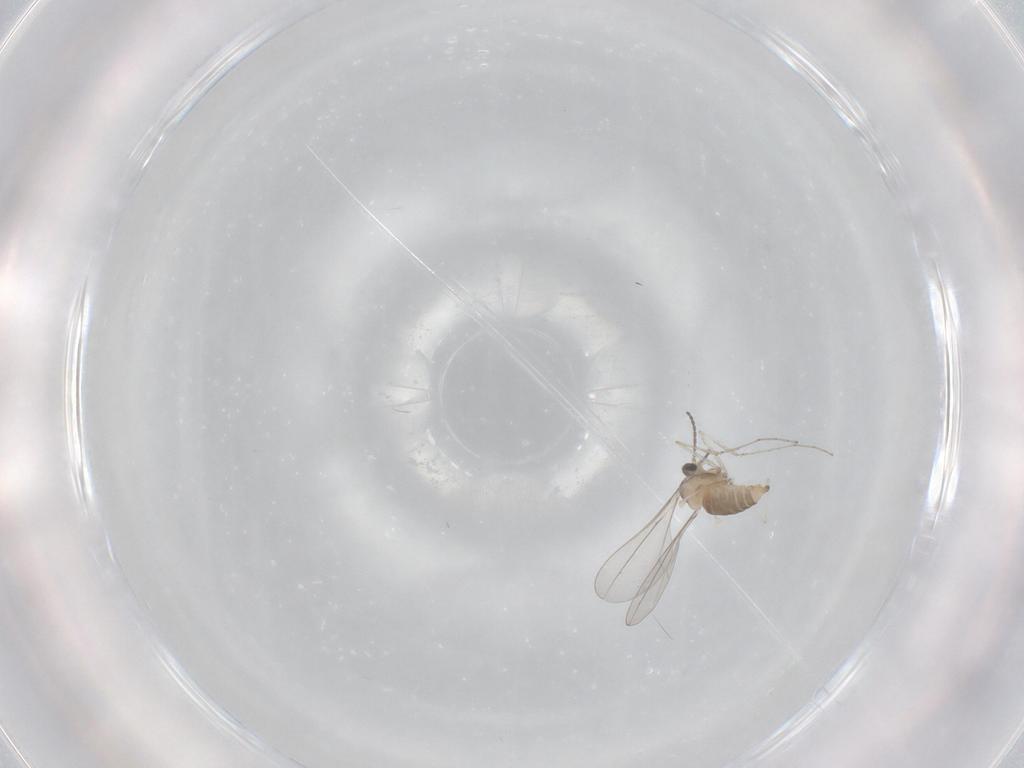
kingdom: Animalia
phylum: Arthropoda
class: Insecta
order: Diptera
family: Cecidomyiidae
